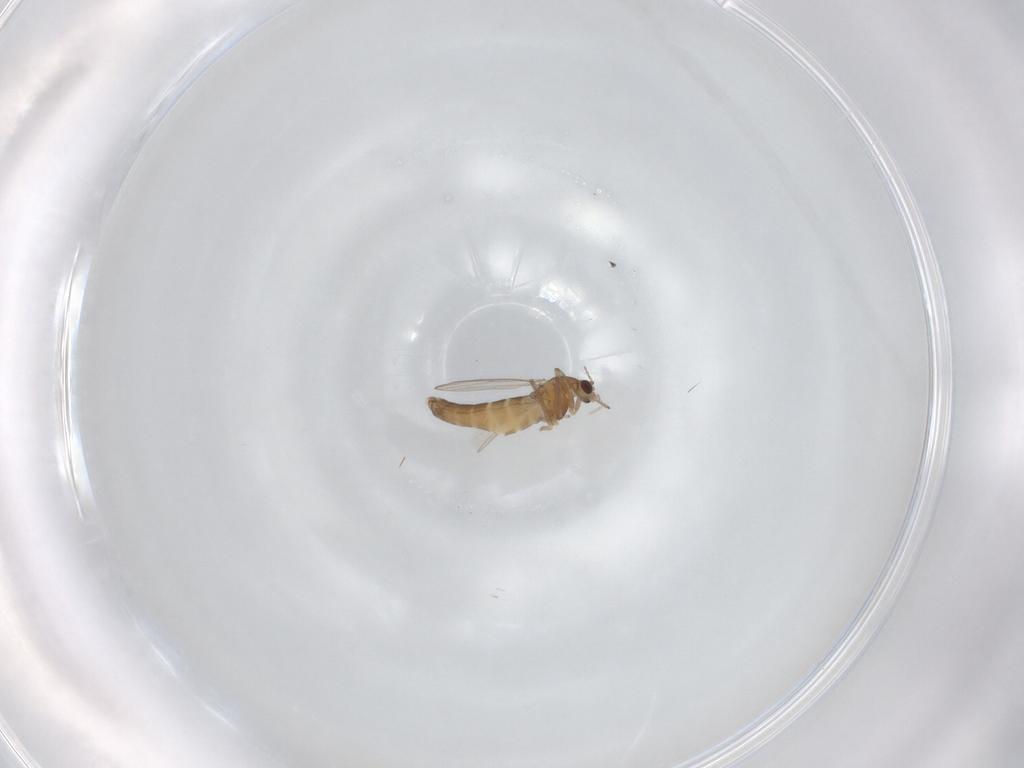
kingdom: Animalia
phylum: Arthropoda
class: Insecta
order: Diptera
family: Chironomidae
